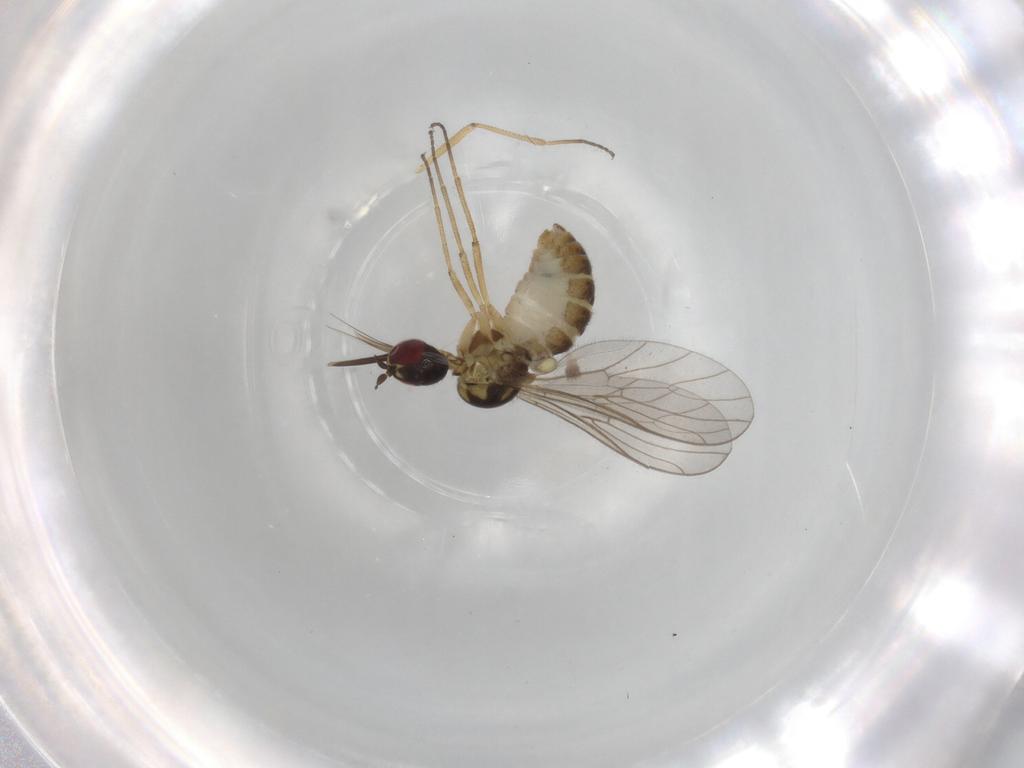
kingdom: Animalia
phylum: Arthropoda
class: Insecta
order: Diptera
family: Bombyliidae
